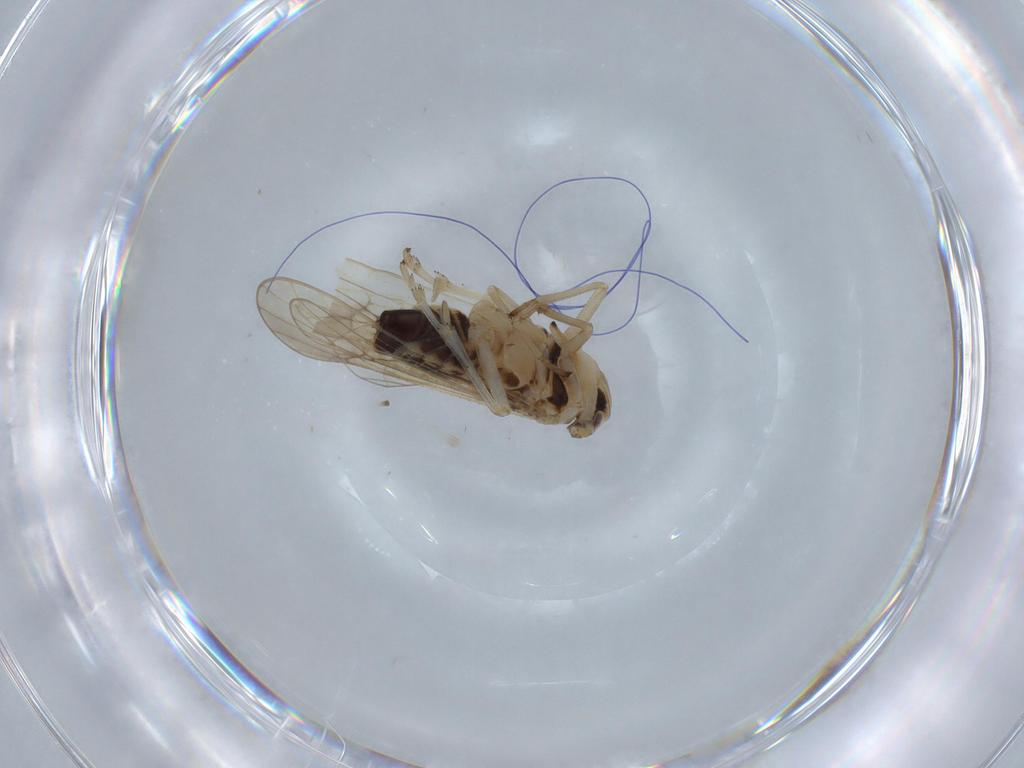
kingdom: Animalia
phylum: Arthropoda
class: Insecta
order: Hemiptera
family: Delphacidae
